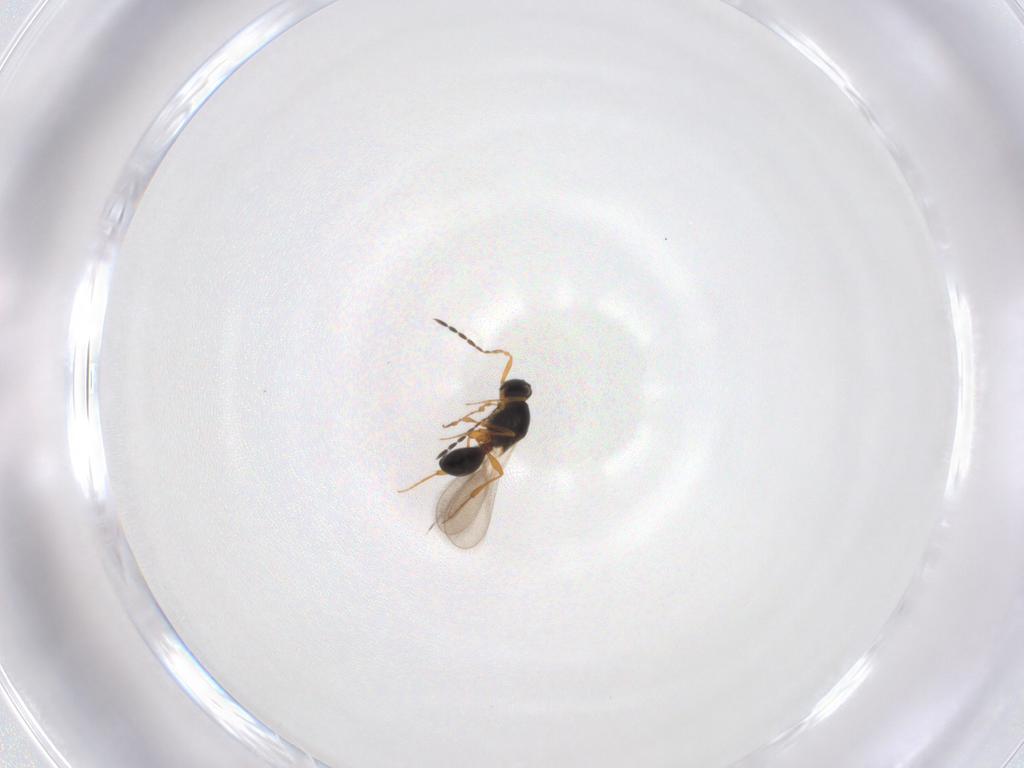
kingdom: Animalia
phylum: Arthropoda
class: Insecta
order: Hymenoptera
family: Platygastridae
